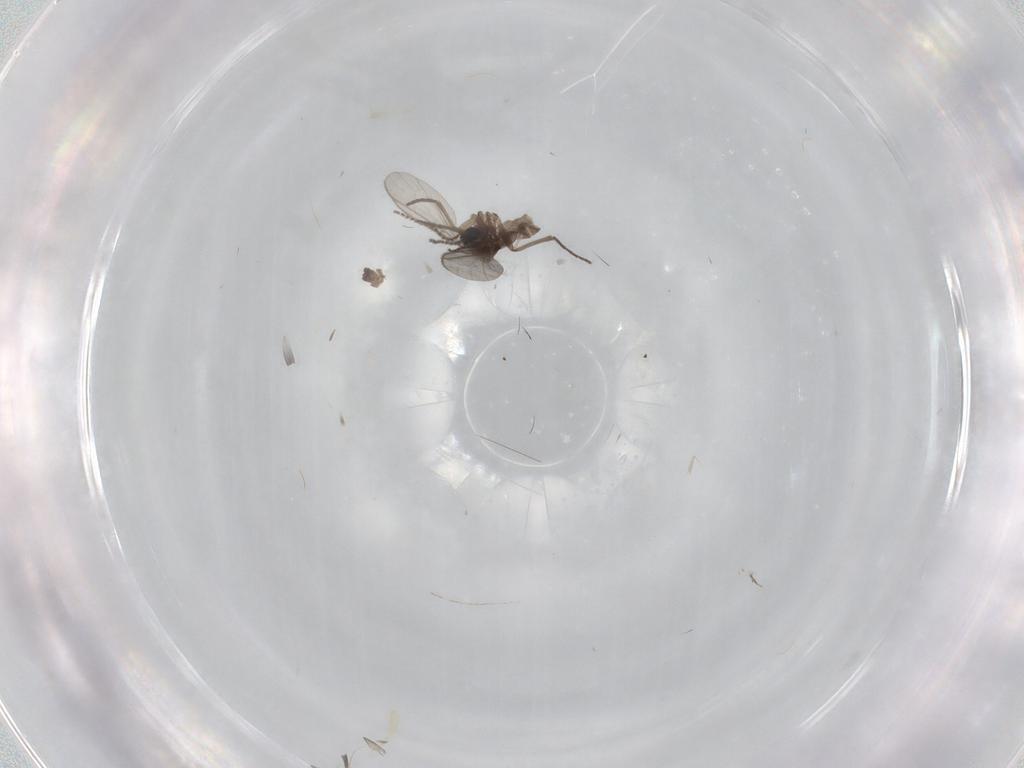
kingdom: Animalia
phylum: Arthropoda
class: Insecta
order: Diptera
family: Sciaridae
